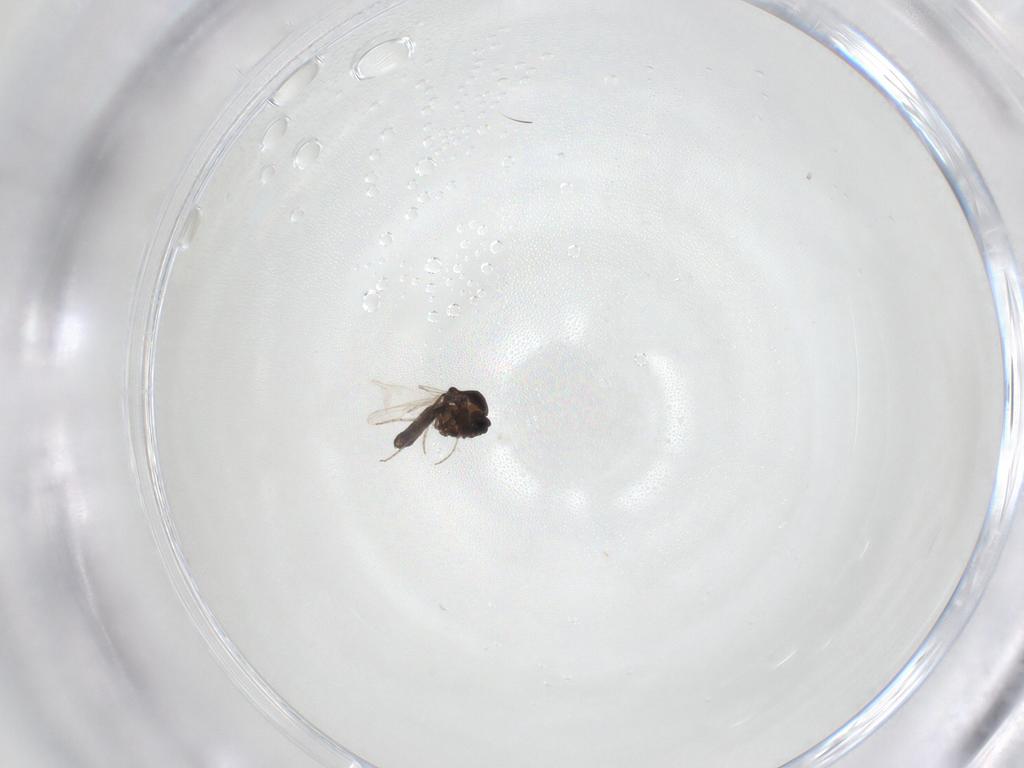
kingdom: Animalia
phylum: Arthropoda
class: Insecta
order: Diptera
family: Ceratopogonidae
